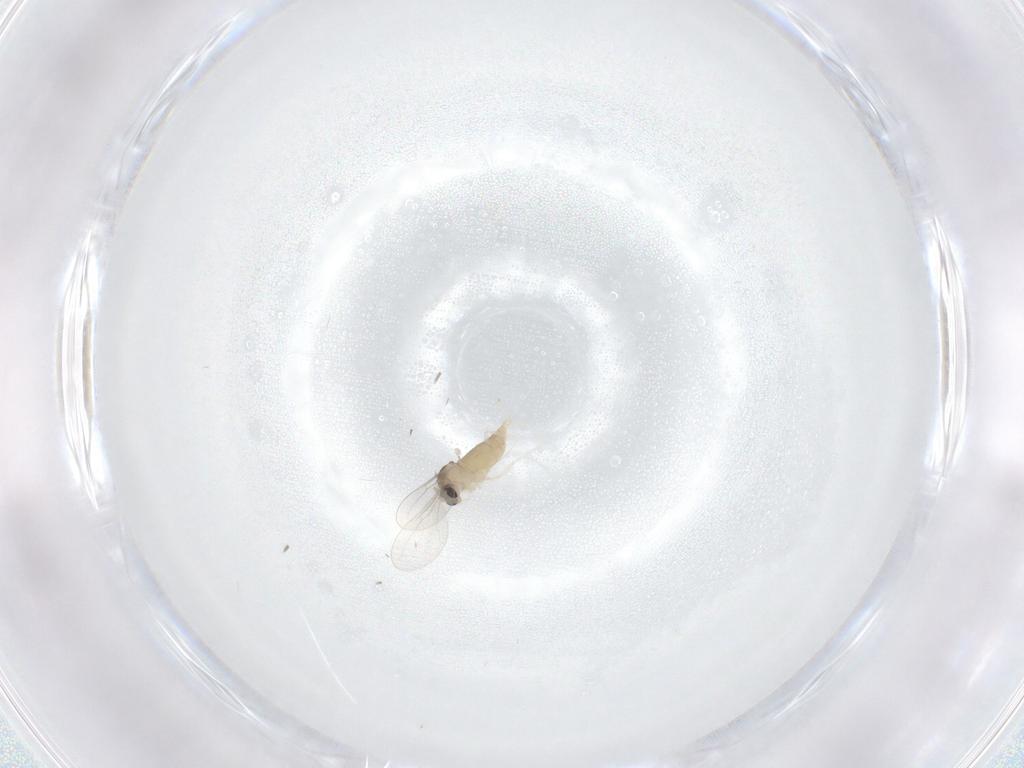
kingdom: Animalia
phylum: Arthropoda
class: Insecta
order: Diptera
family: Cecidomyiidae
